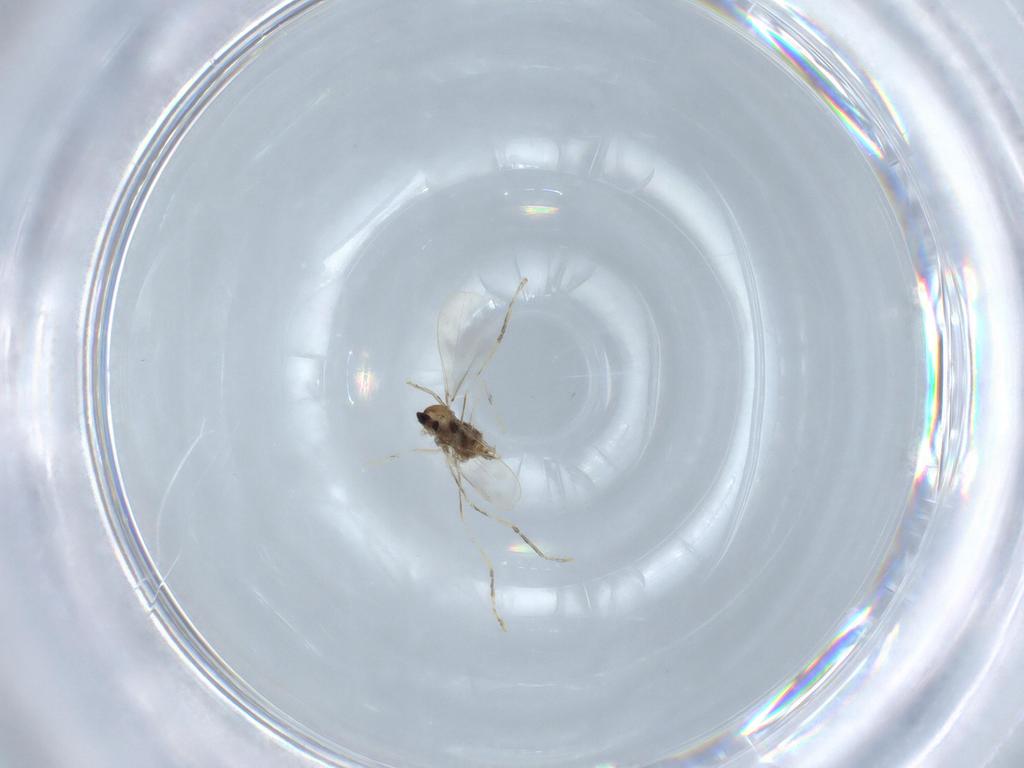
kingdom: Animalia
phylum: Arthropoda
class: Insecta
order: Diptera
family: Cecidomyiidae
